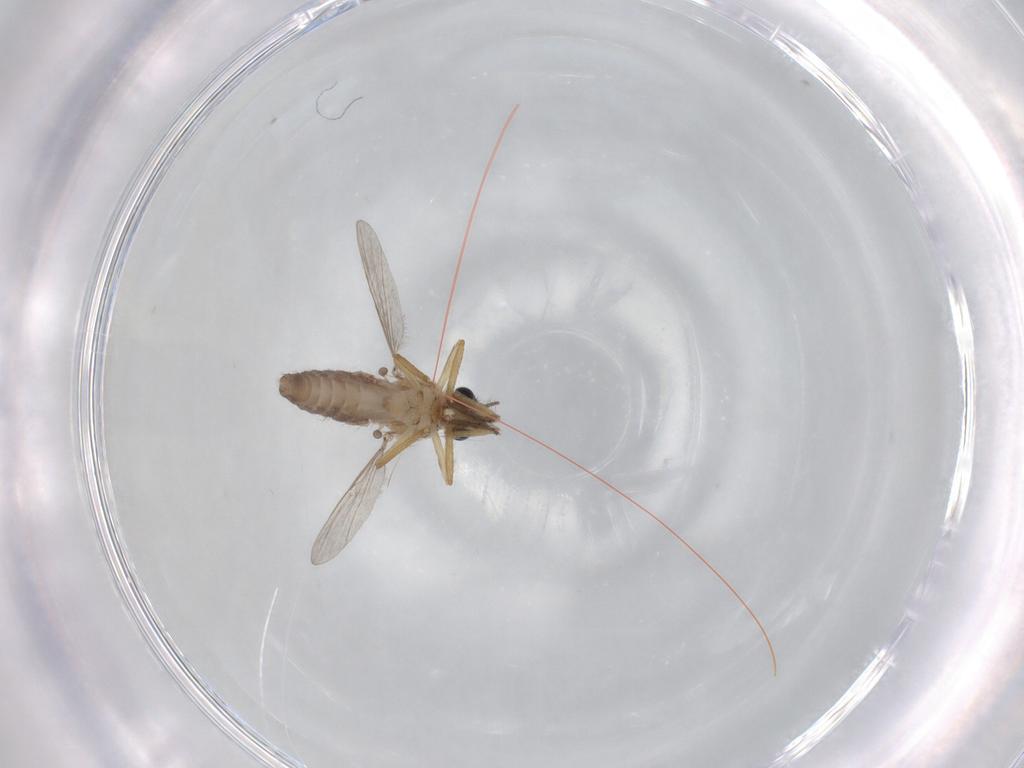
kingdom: Animalia
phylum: Arthropoda
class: Insecta
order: Diptera
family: Ceratopogonidae
